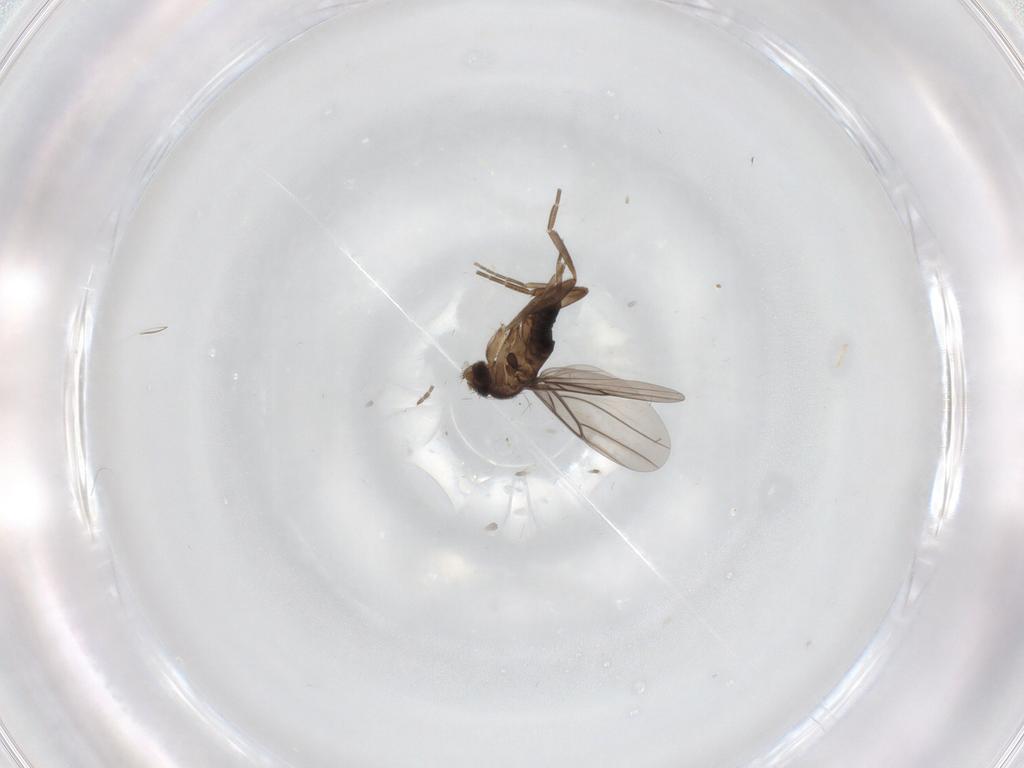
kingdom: Animalia
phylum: Arthropoda
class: Insecta
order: Diptera
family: Phoridae
